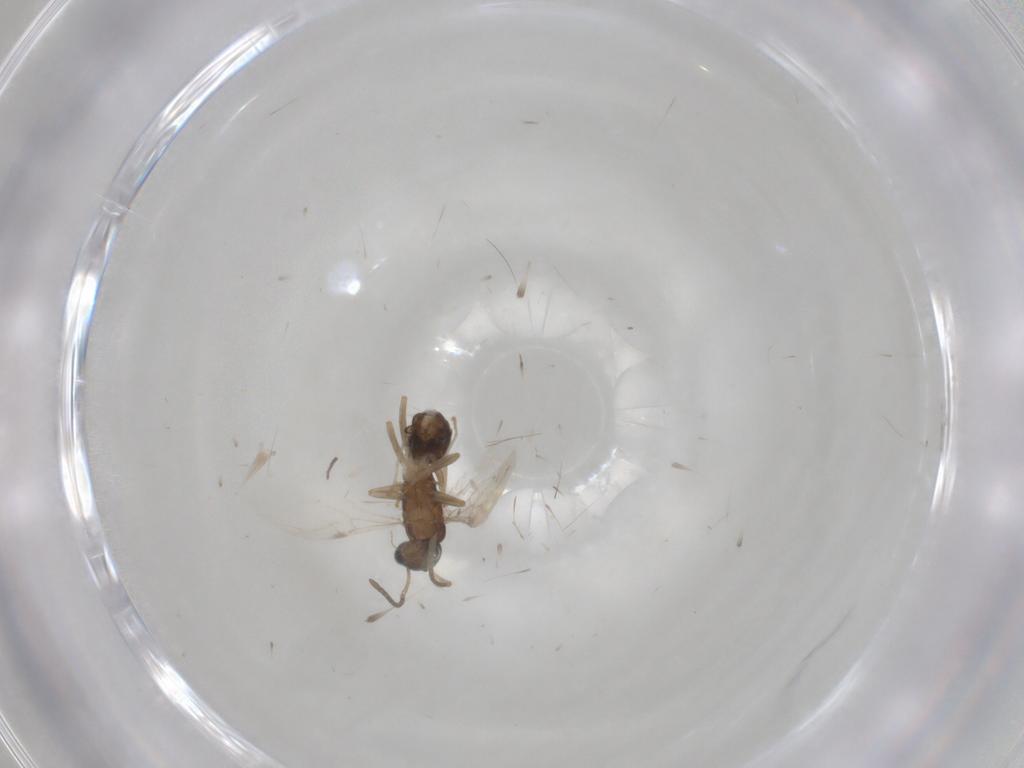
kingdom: Animalia
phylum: Arthropoda
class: Insecta
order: Hymenoptera
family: Formicidae
